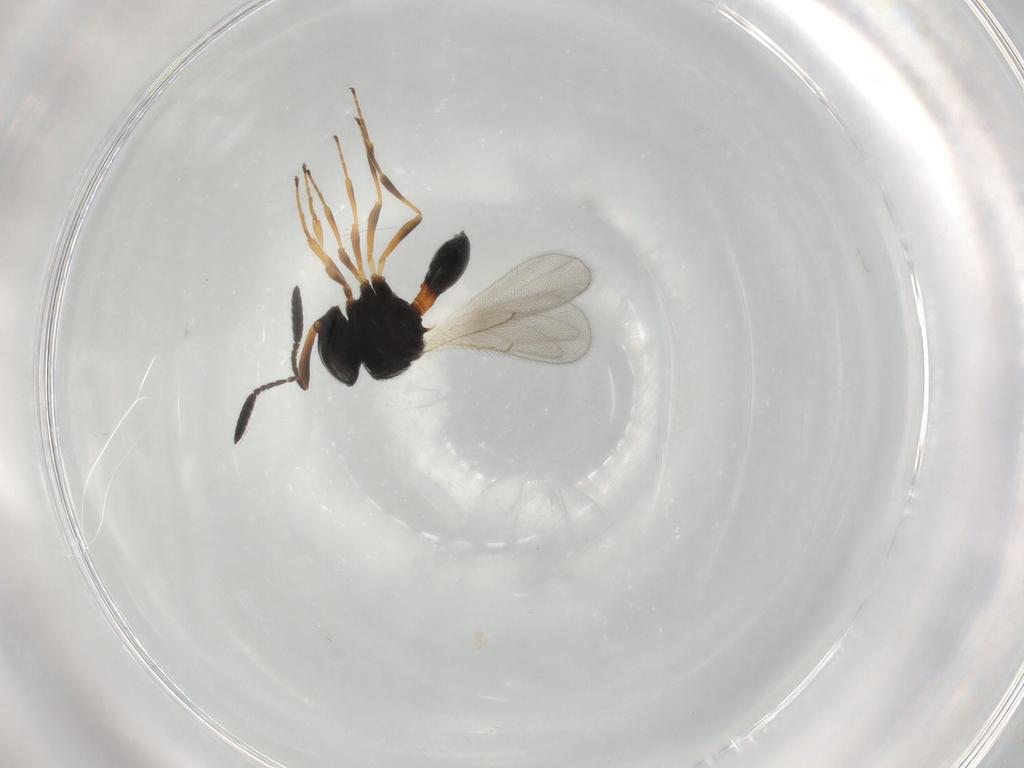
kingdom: Animalia
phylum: Arthropoda
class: Insecta
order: Hymenoptera
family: Scelionidae
